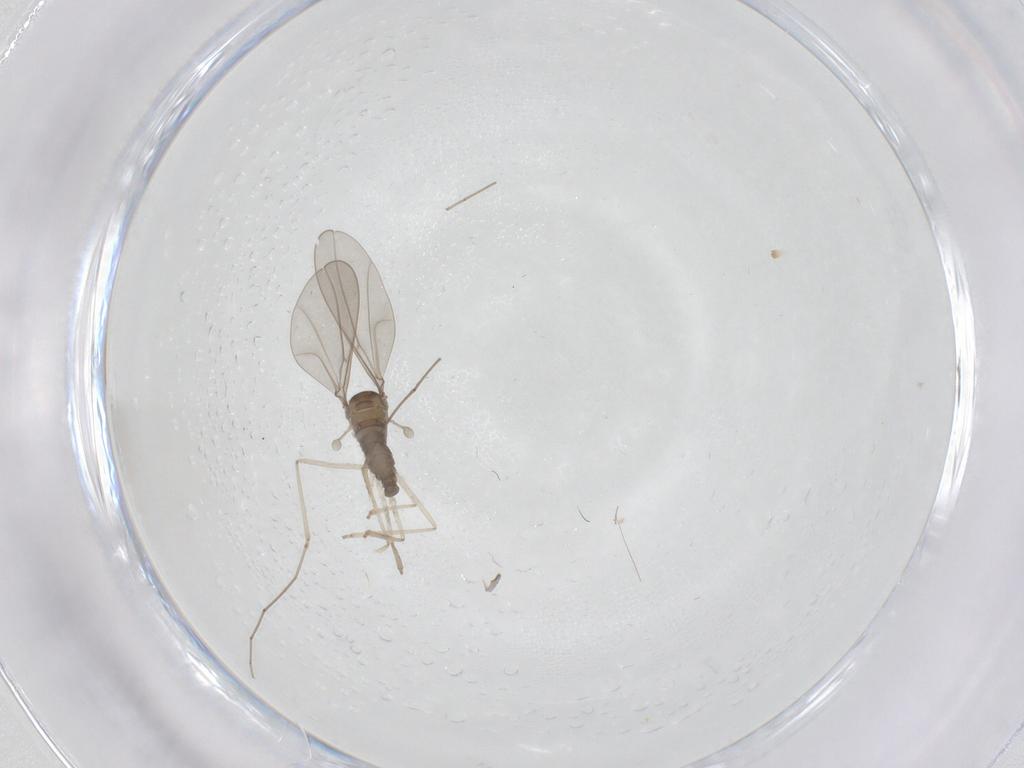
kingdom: Animalia
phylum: Arthropoda
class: Insecta
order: Diptera
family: Cecidomyiidae
